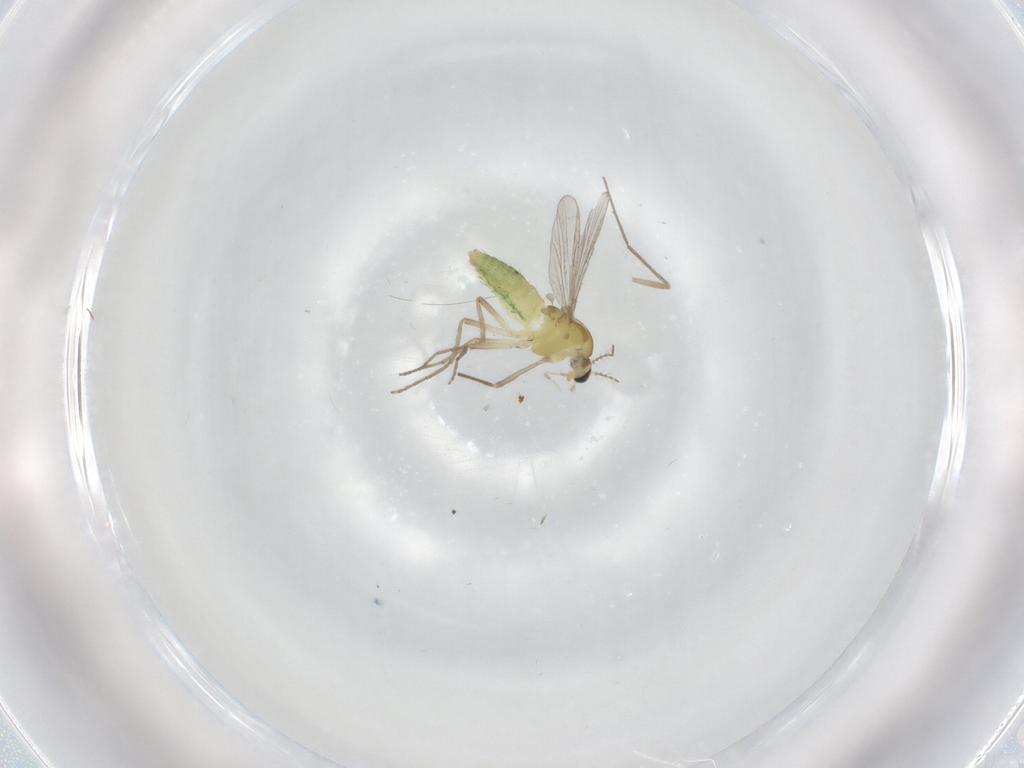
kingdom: Animalia
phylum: Arthropoda
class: Insecta
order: Diptera
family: Chironomidae
